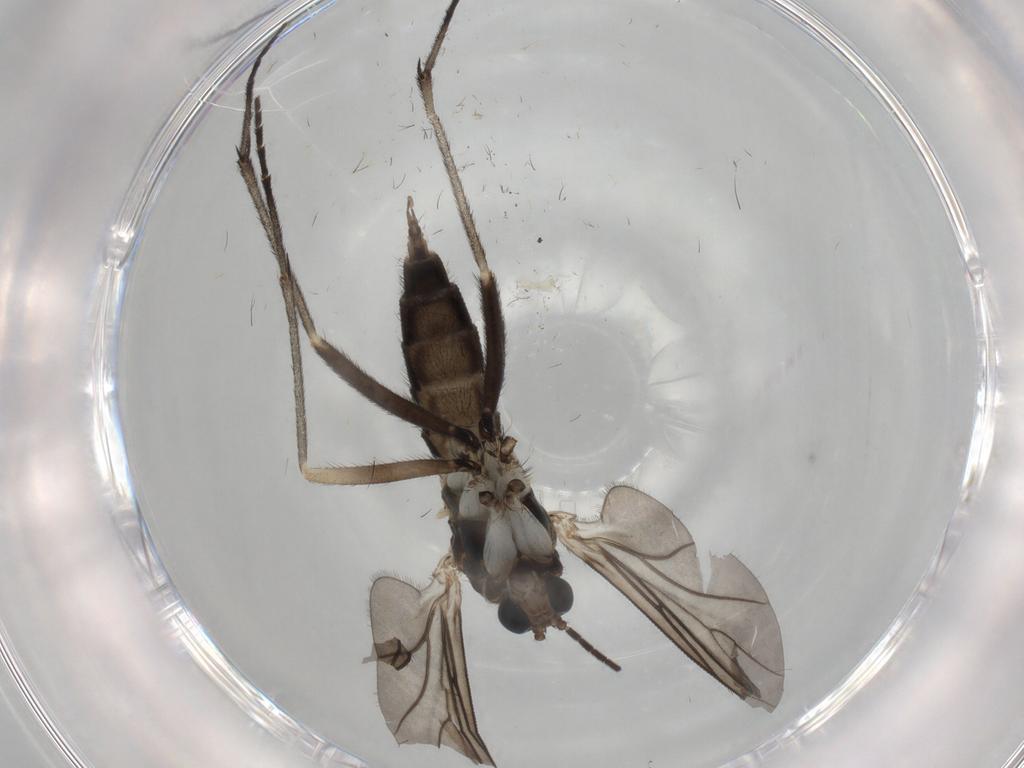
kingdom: Animalia
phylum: Arthropoda
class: Insecta
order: Diptera
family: Sciaridae
